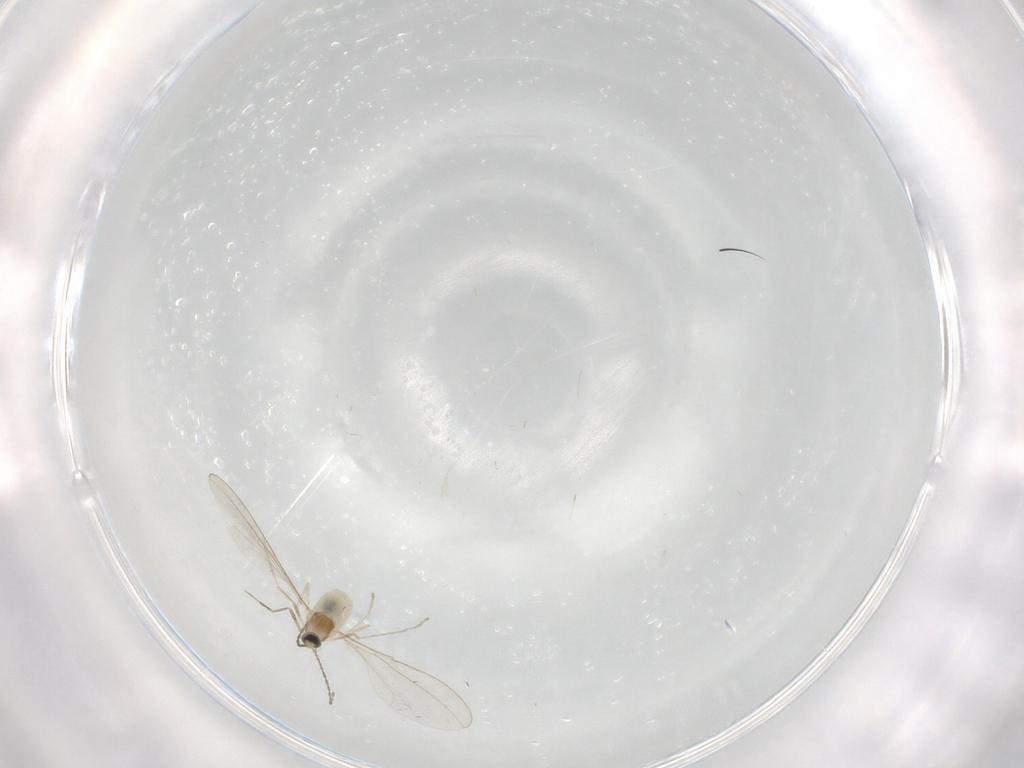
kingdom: Animalia
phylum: Arthropoda
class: Insecta
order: Diptera
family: Cecidomyiidae
